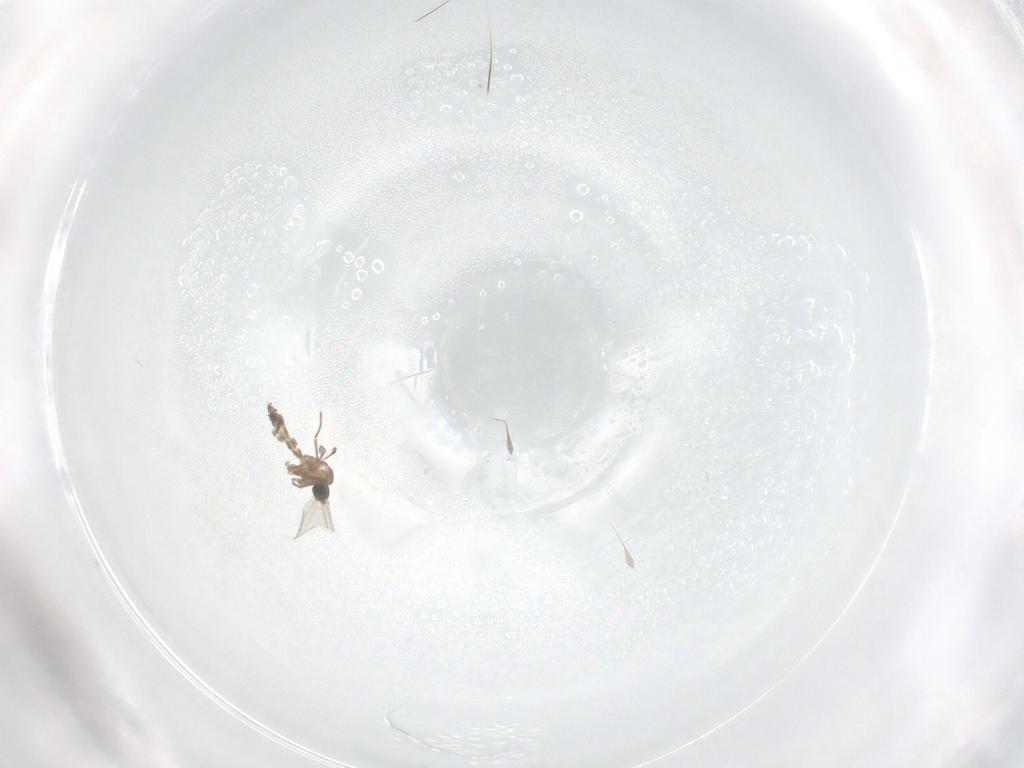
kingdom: Animalia
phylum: Arthropoda
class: Insecta
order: Diptera
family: Sciaridae
